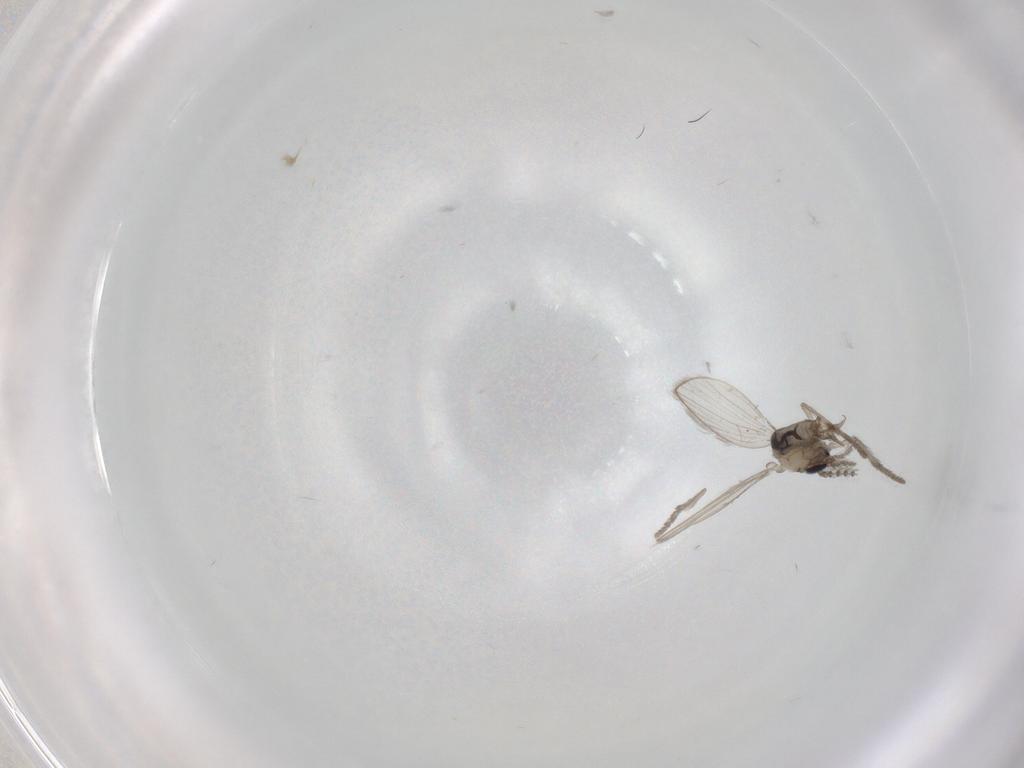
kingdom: Animalia
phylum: Arthropoda
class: Insecta
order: Diptera
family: Psychodidae
